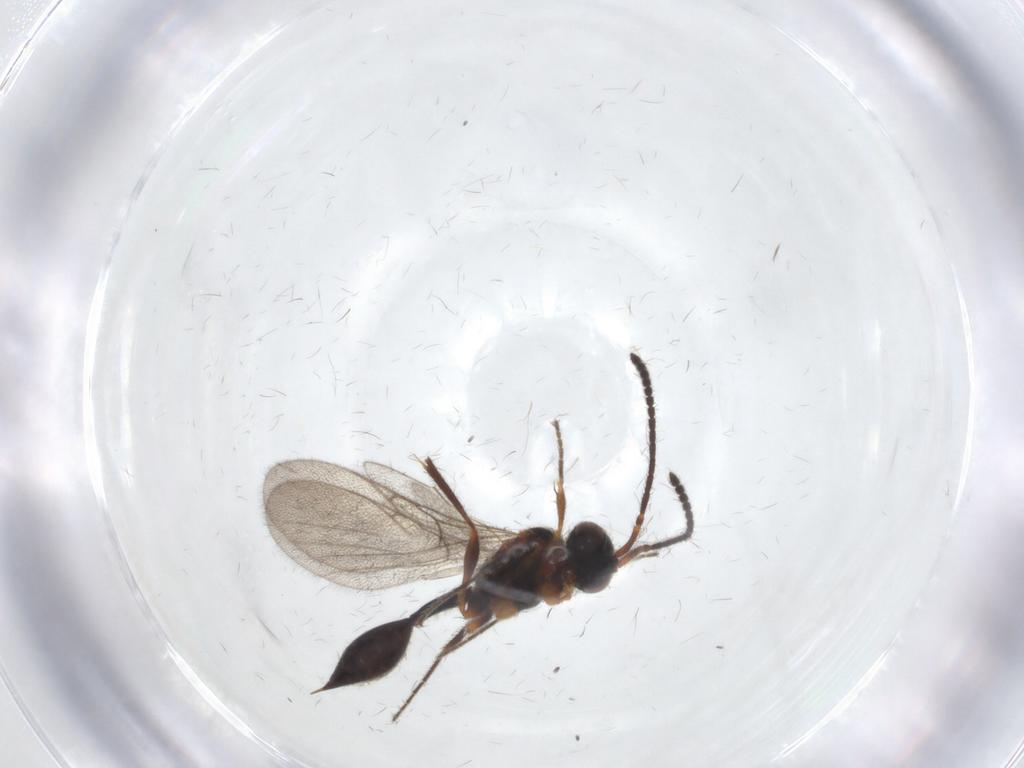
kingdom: Animalia
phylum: Arthropoda
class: Insecta
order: Hymenoptera
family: Diapriidae
